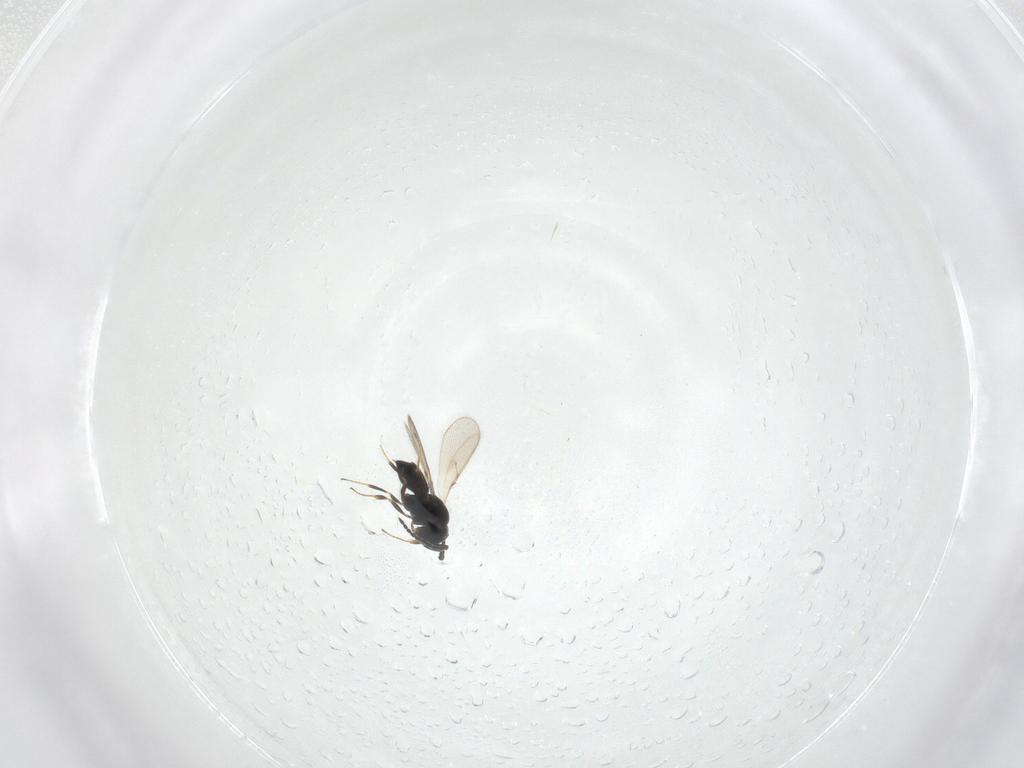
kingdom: Animalia
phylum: Arthropoda
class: Insecta
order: Hymenoptera
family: Scelionidae
